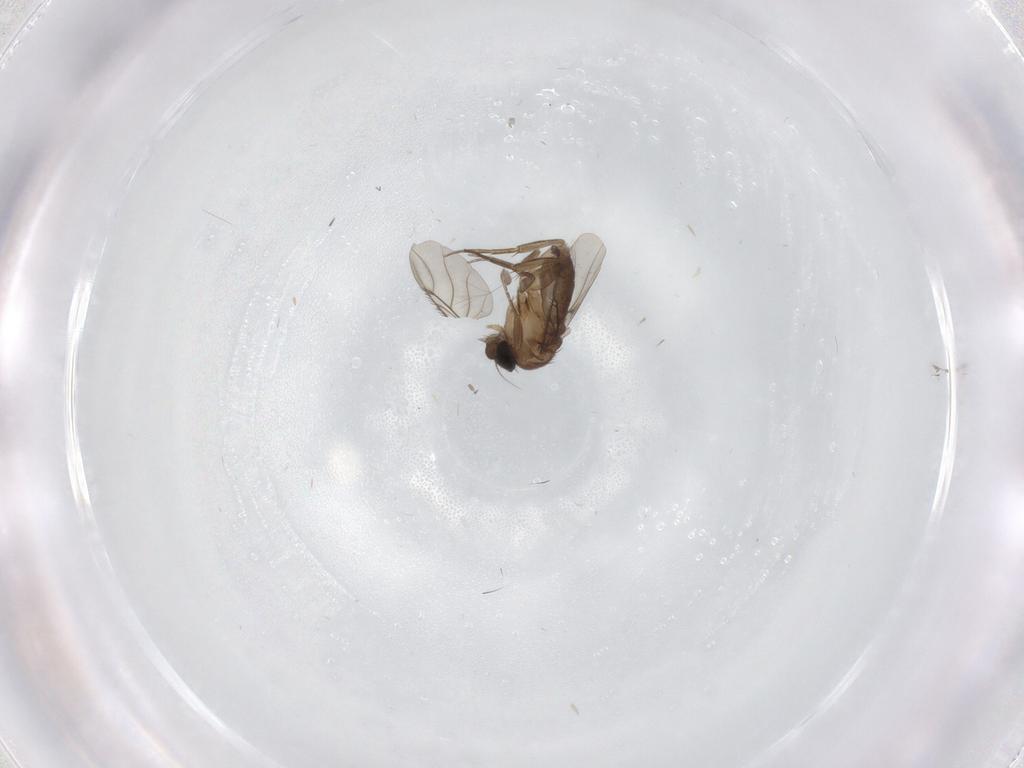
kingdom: Animalia
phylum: Arthropoda
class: Insecta
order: Diptera
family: Phoridae
